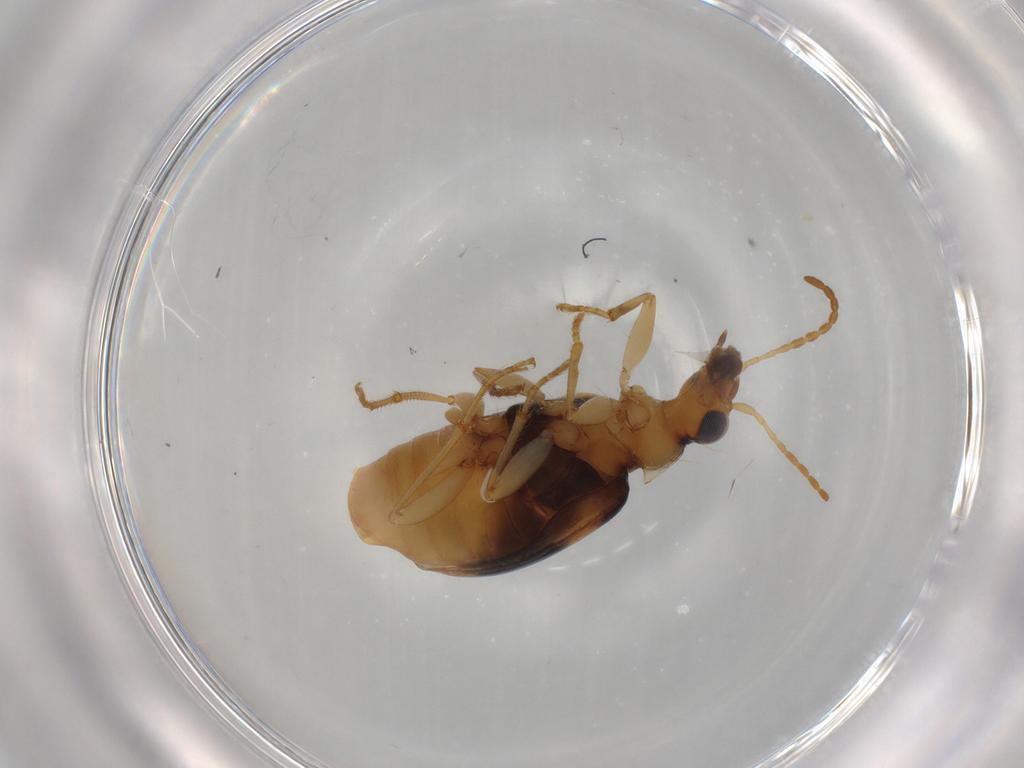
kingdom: Animalia
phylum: Arthropoda
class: Insecta
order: Coleoptera
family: Carabidae
